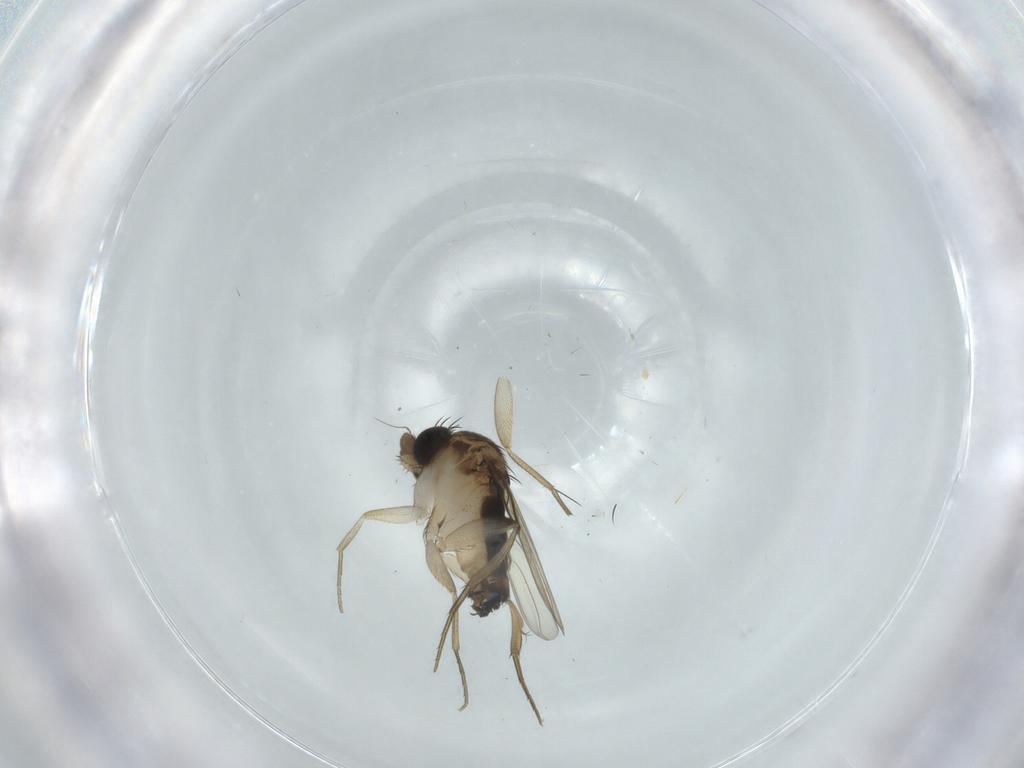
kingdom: Animalia
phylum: Arthropoda
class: Insecta
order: Diptera
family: Phoridae
